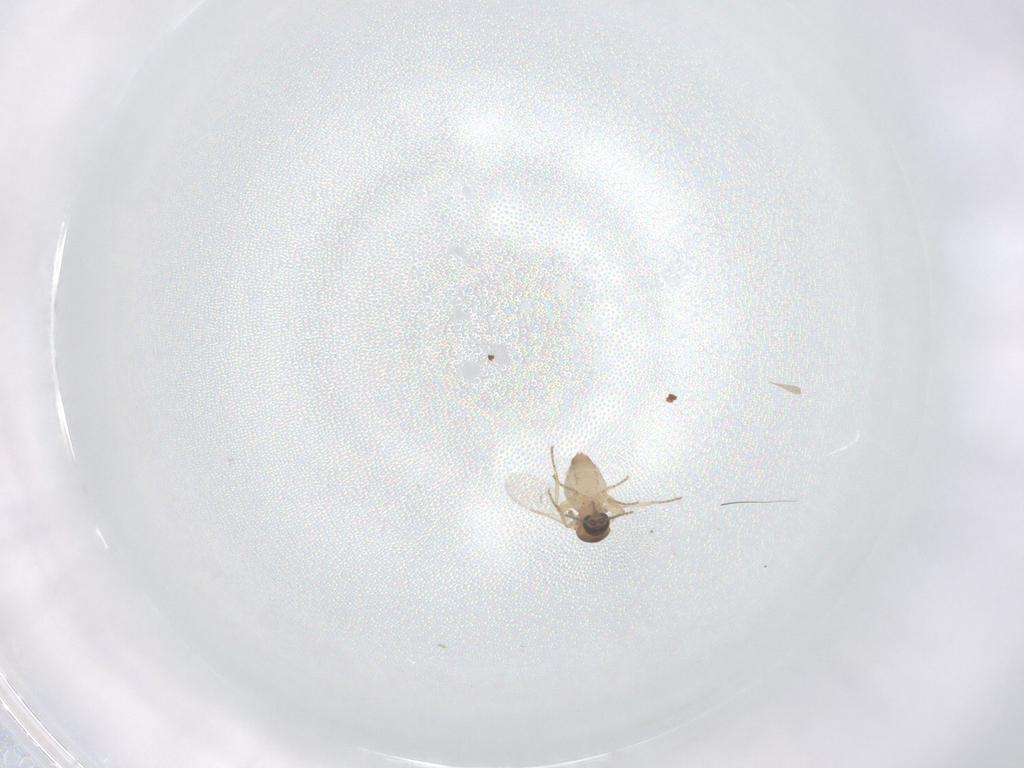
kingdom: Animalia
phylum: Arthropoda
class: Insecta
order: Diptera
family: Ceratopogonidae
